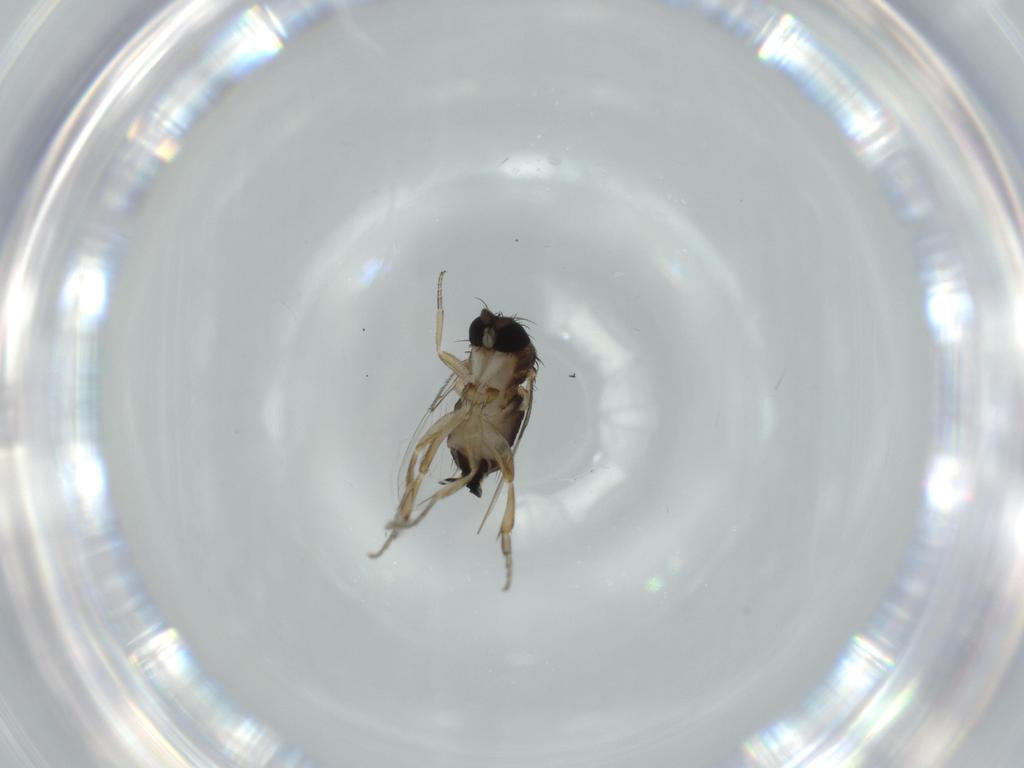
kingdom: Animalia
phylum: Arthropoda
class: Insecta
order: Diptera
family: Phoridae
